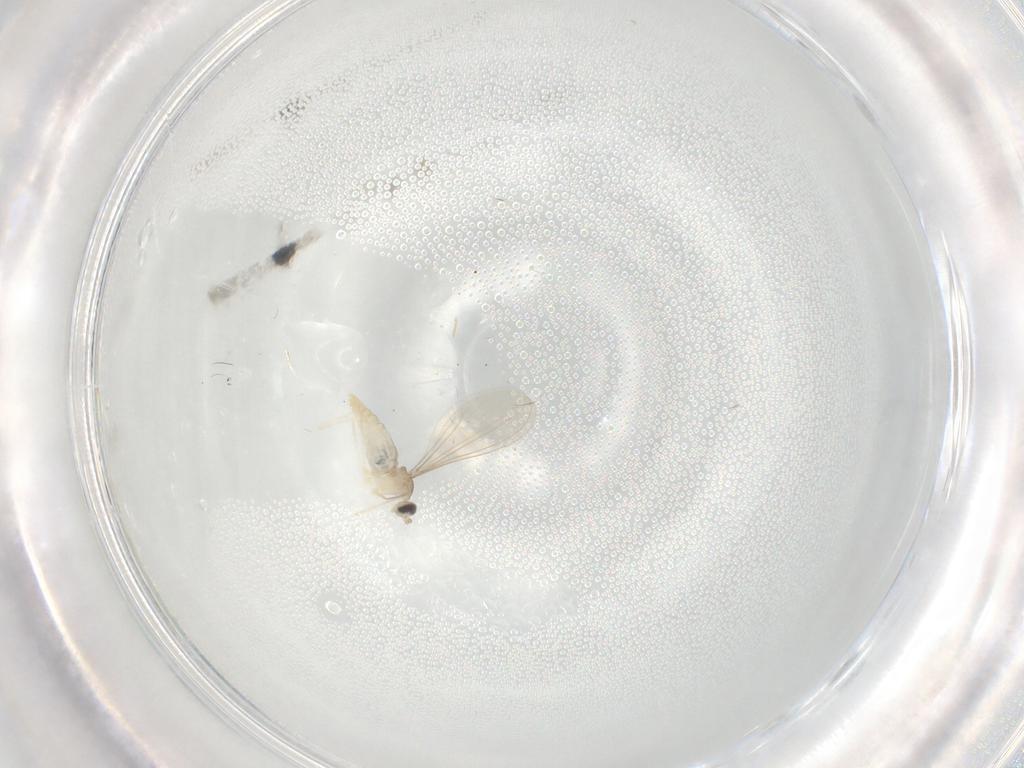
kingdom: Animalia
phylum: Arthropoda
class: Insecta
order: Diptera
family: Cecidomyiidae
